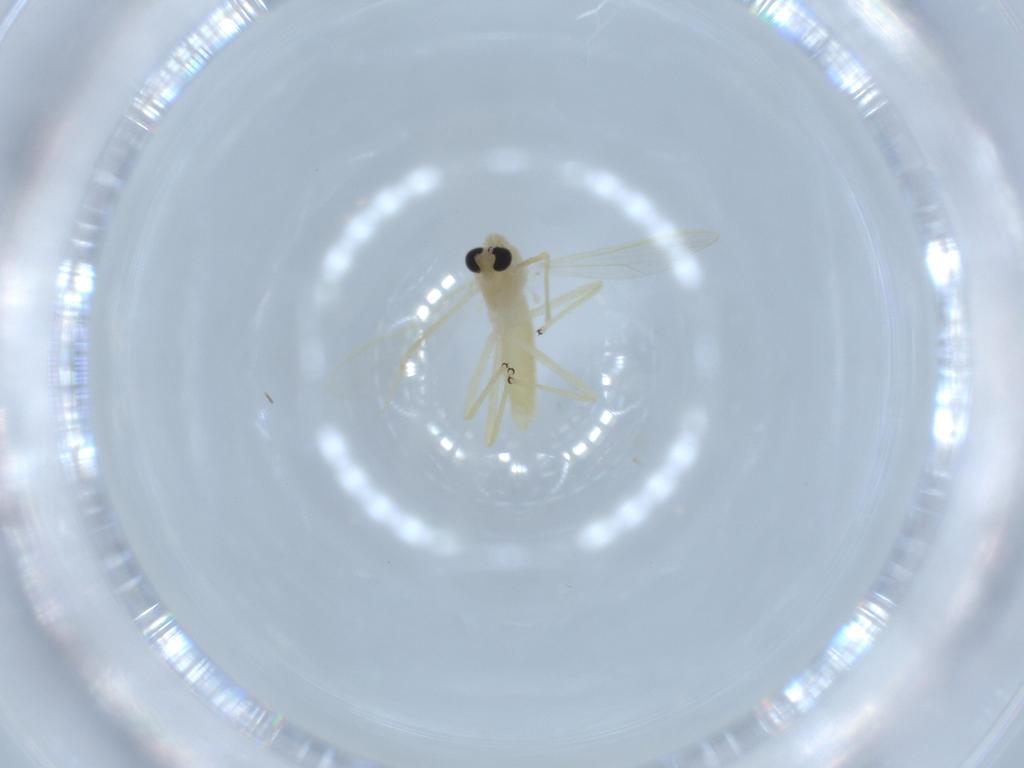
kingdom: Animalia
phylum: Arthropoda
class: Insecta
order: Diptera
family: Chironomidae
